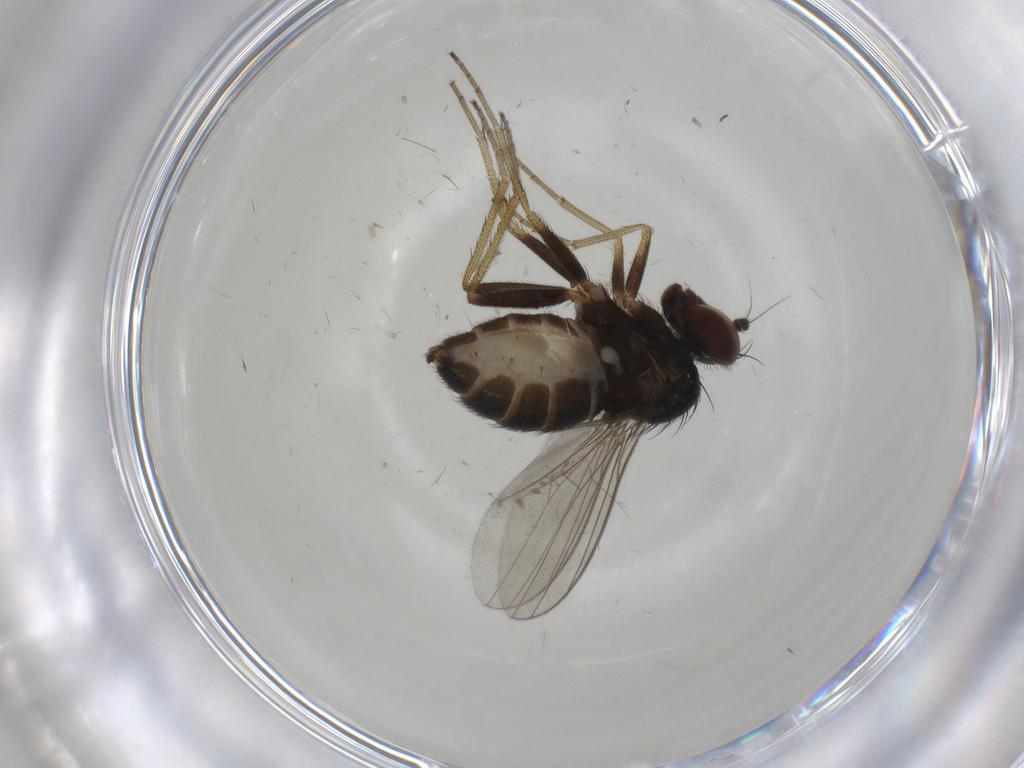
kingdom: Animalia
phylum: Arthropoda
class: Insecta
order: Diptera
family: Dolichopodidae
